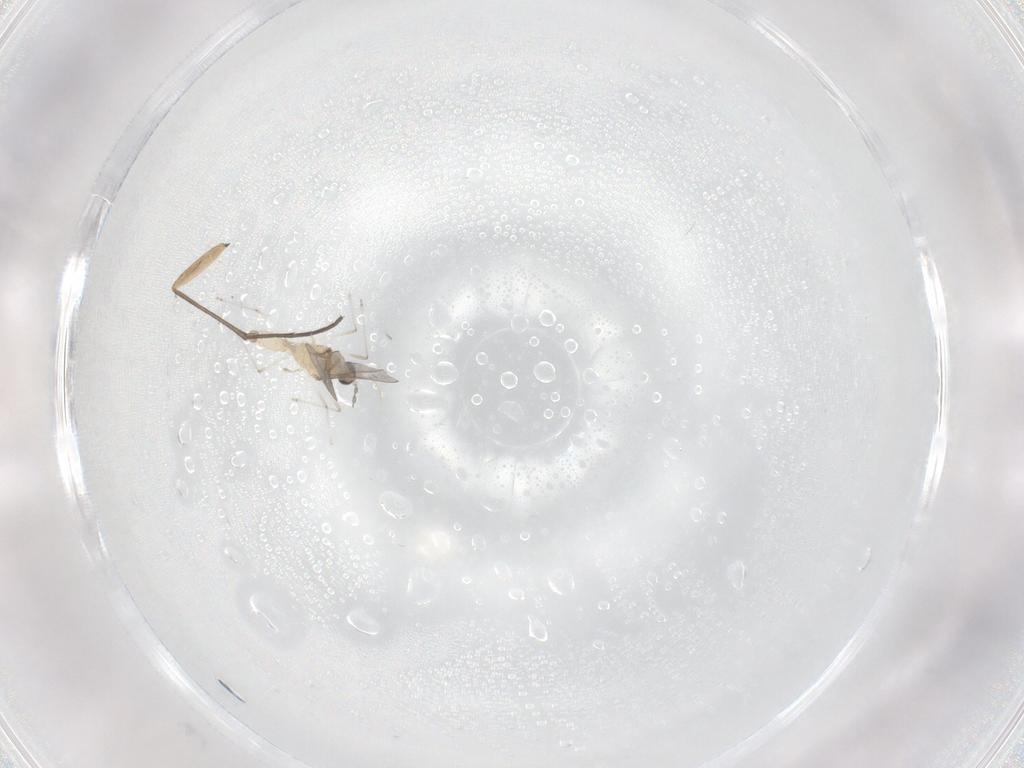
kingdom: Animalia
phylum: Arthropoda
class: Insecta
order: Diptera
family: Cecidomyiidae
